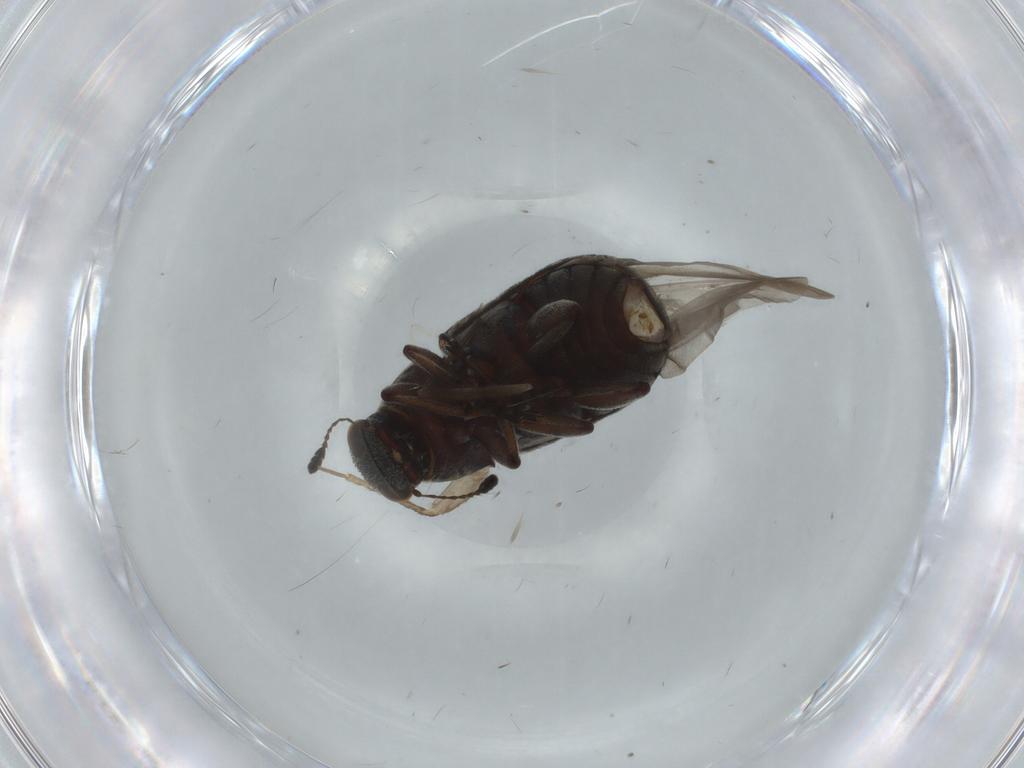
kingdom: Animalia
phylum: Arthropoda
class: Insecta
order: Coleoptera
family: Anthribidae
